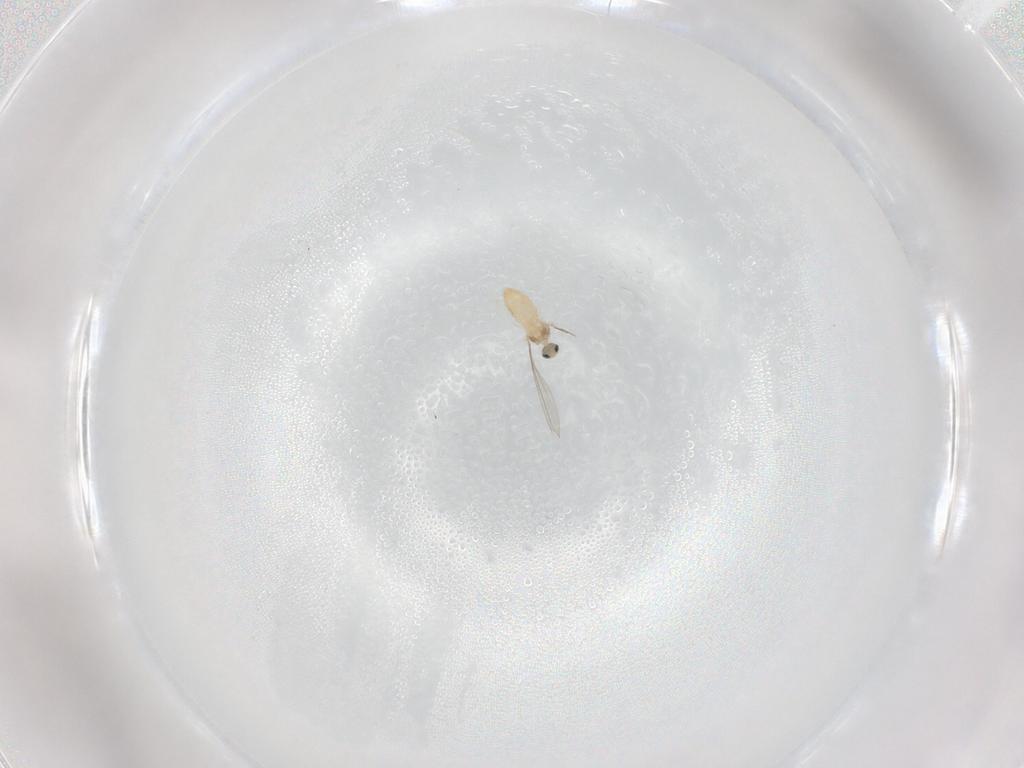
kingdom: Animalia
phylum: Arthropoda
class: Insecta
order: Diptera
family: Cecidomyiidae
